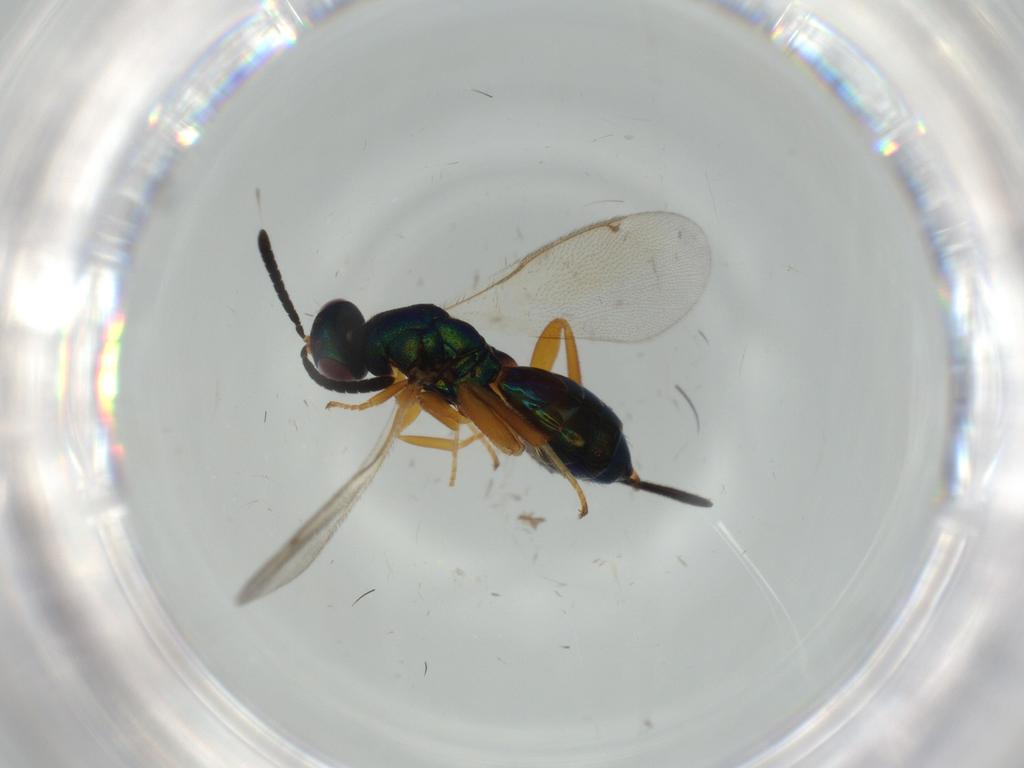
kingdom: Animalia
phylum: Arthropoda
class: Insecta
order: Hymenoptera
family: Torymidae
